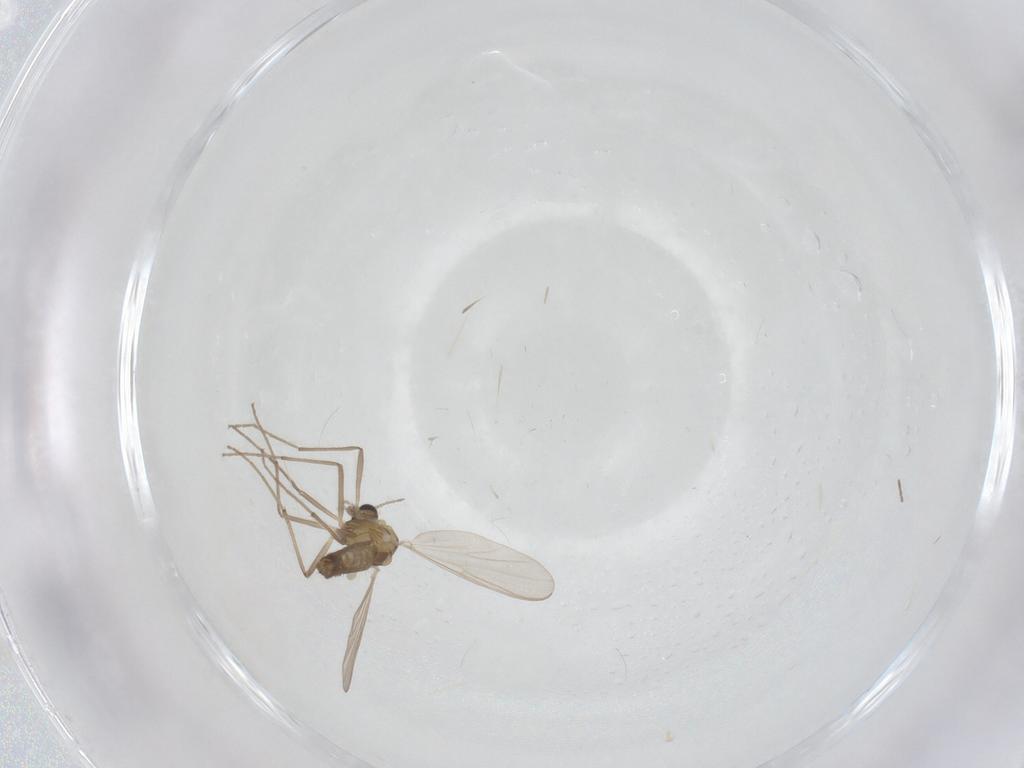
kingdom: Animalia
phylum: Arthropoda
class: Insecta
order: Diptera
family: Chironomidae
